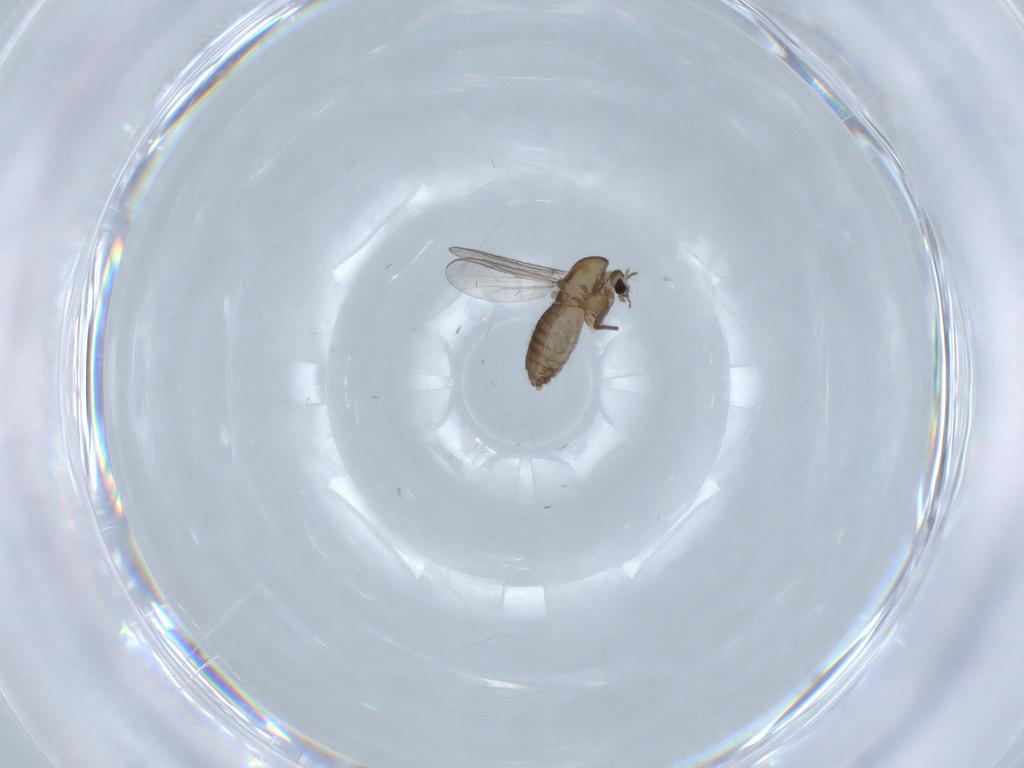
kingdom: Animalia
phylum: Arthropoda
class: Insecta
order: Diptera
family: Chironomidae
